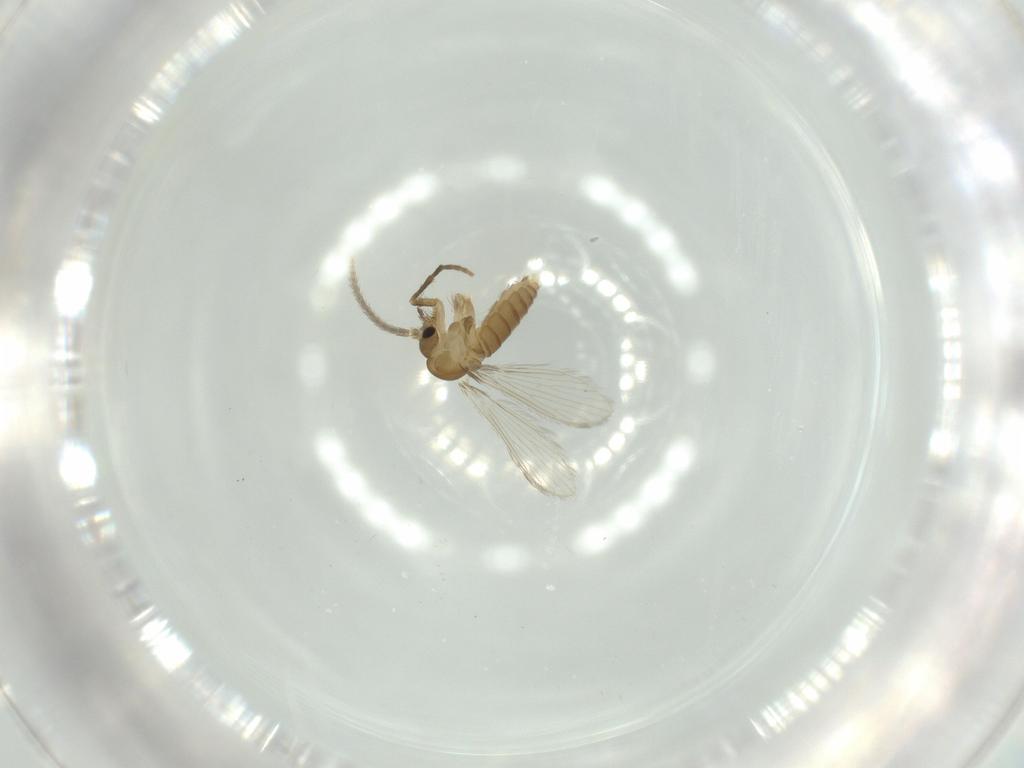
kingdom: Animalia
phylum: Arthropoda
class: Insecta
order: Diptera
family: Psychodidae
